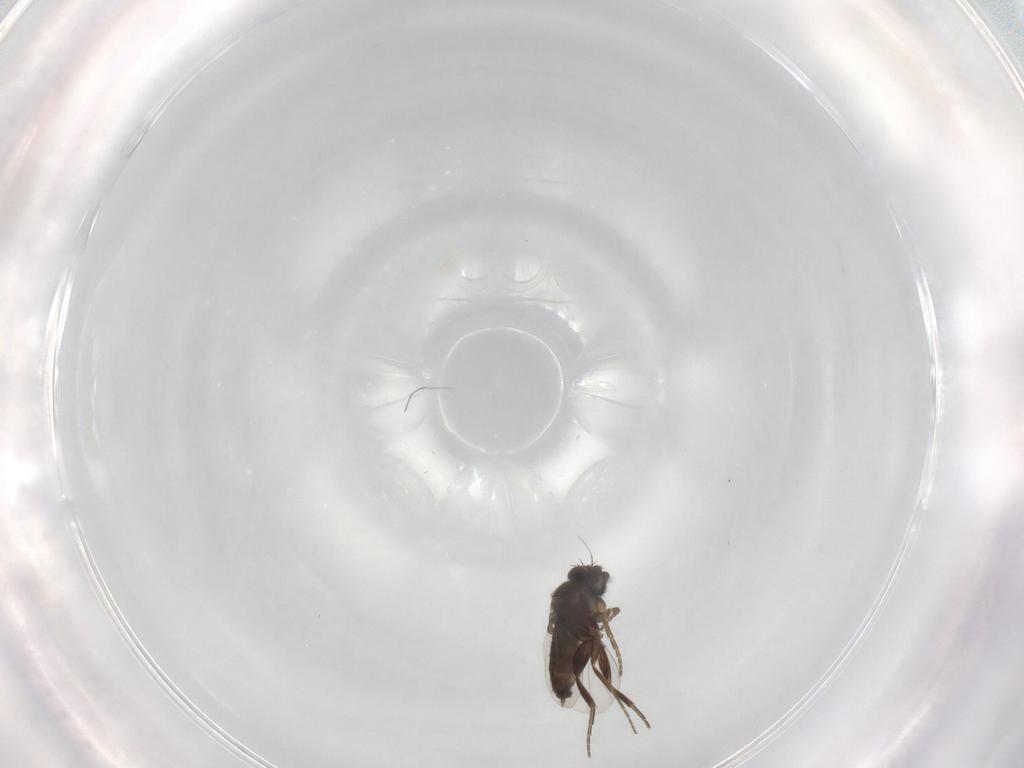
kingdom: Animalia
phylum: Arthropoda
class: Insecta
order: Diptera
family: Phoridae
